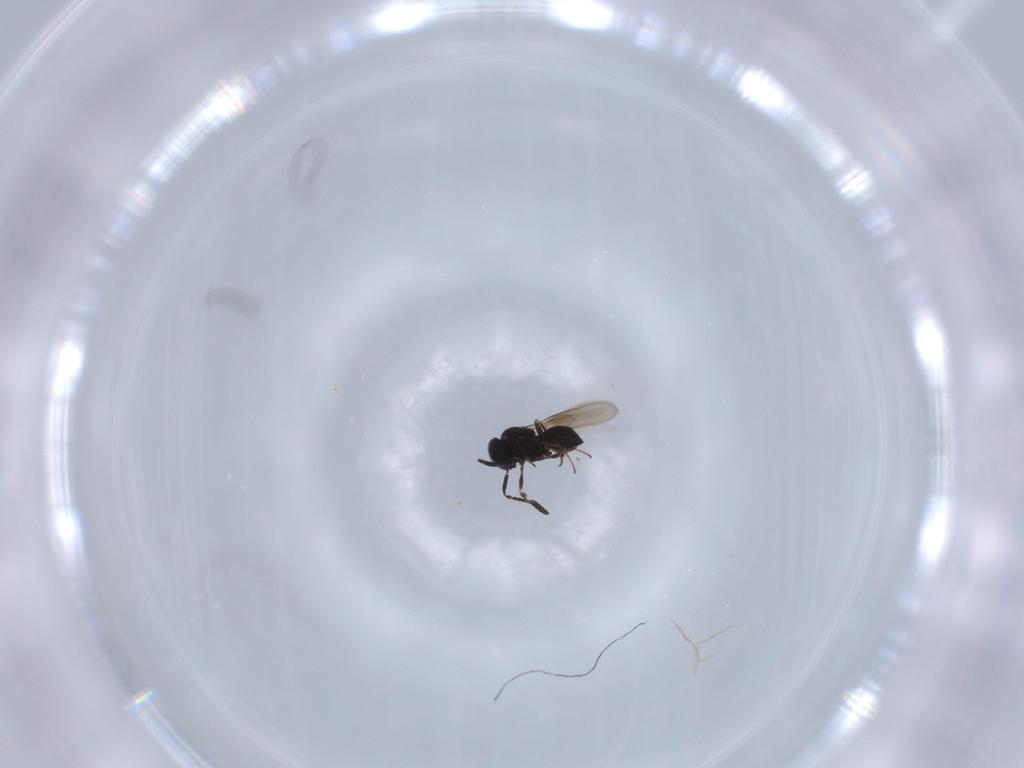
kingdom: Animalia
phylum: Arthropoda
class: Insecta
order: Hymenoptera
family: Scelionidae
